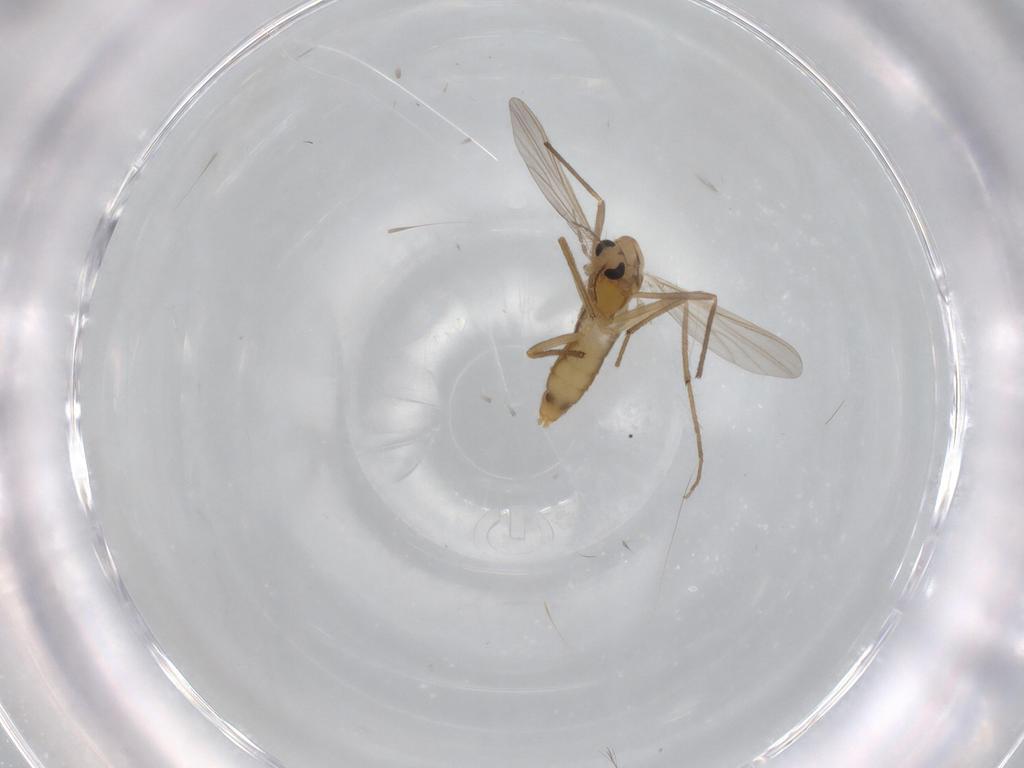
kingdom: Animalia
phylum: Arthropoda
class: Insecta
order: Diptera
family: Chironomidae
